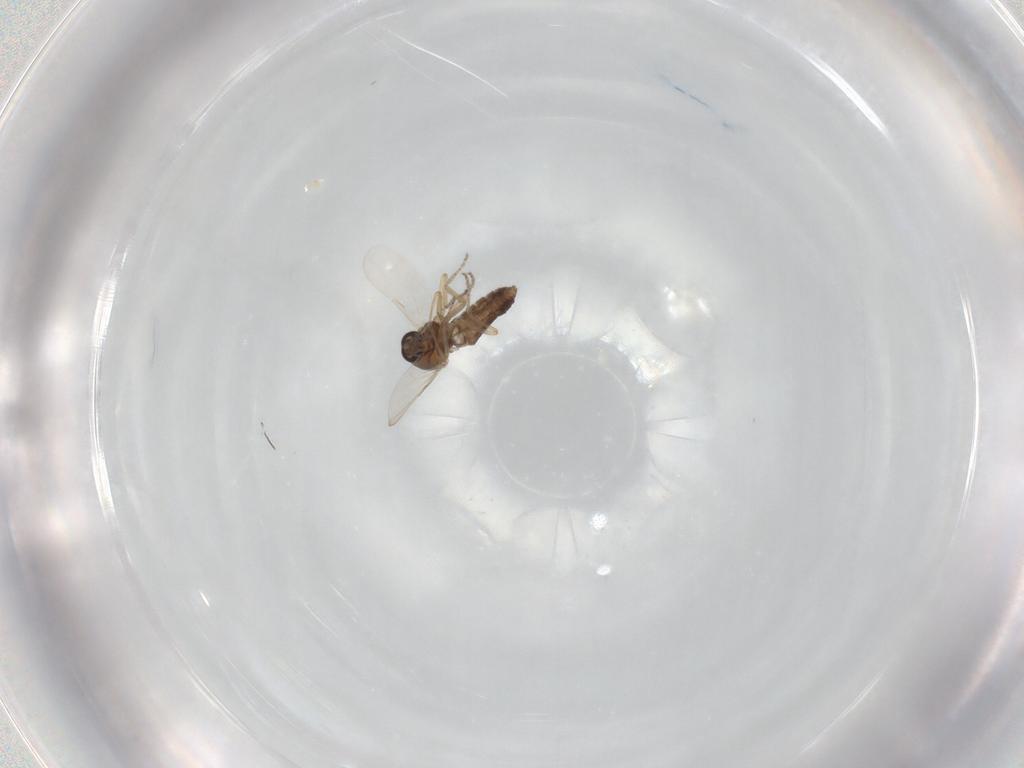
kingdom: Animalia
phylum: Arthropoda
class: Insecta
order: Diptera
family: Ceratopogonidae
